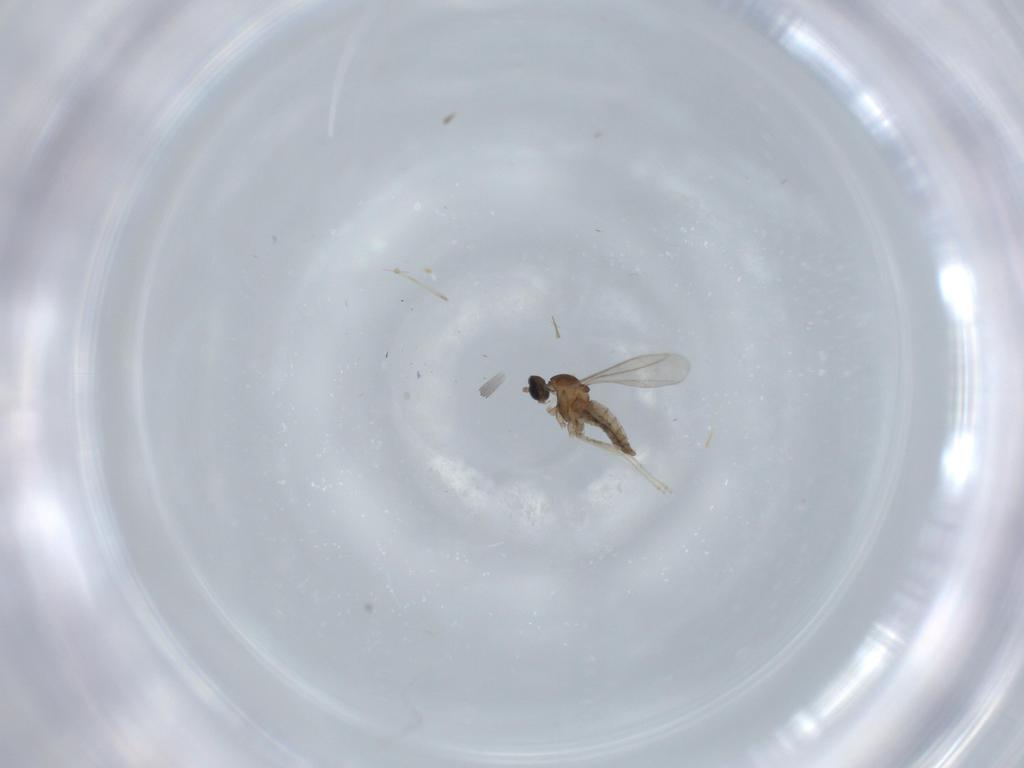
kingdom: Animalia
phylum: Arthropoda
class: Insecta
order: Diptera
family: Cecidomyiidae
